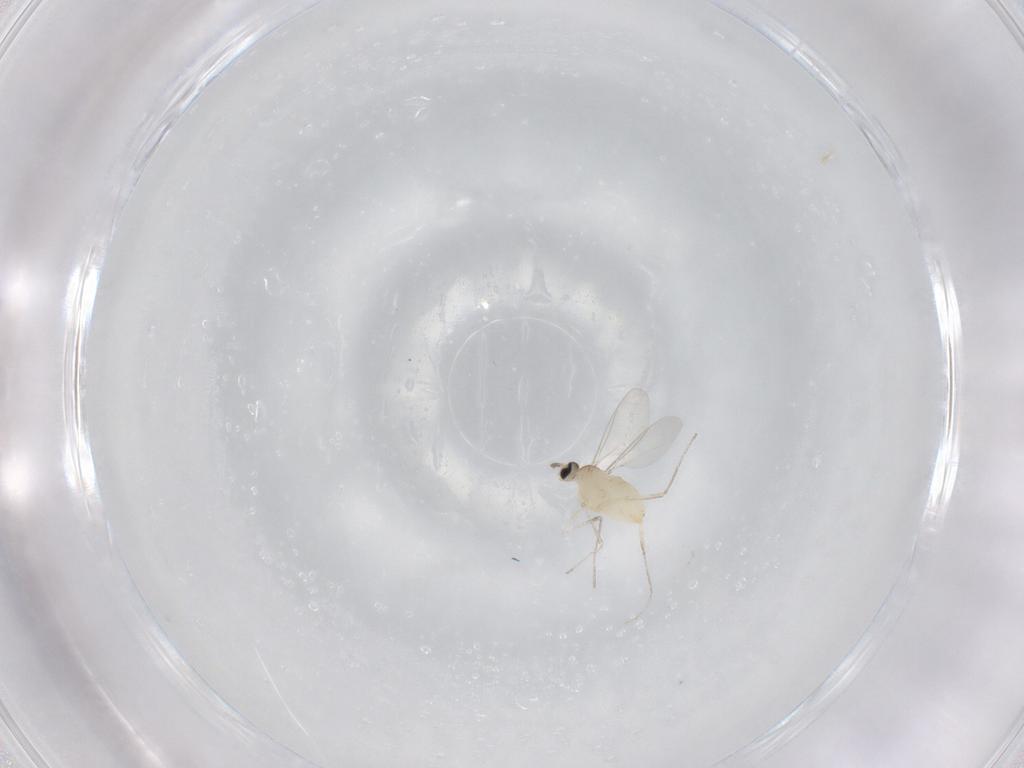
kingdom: Animalia
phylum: Arthropoda
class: Insecta
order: Diptera
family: Cecidomyiidae
